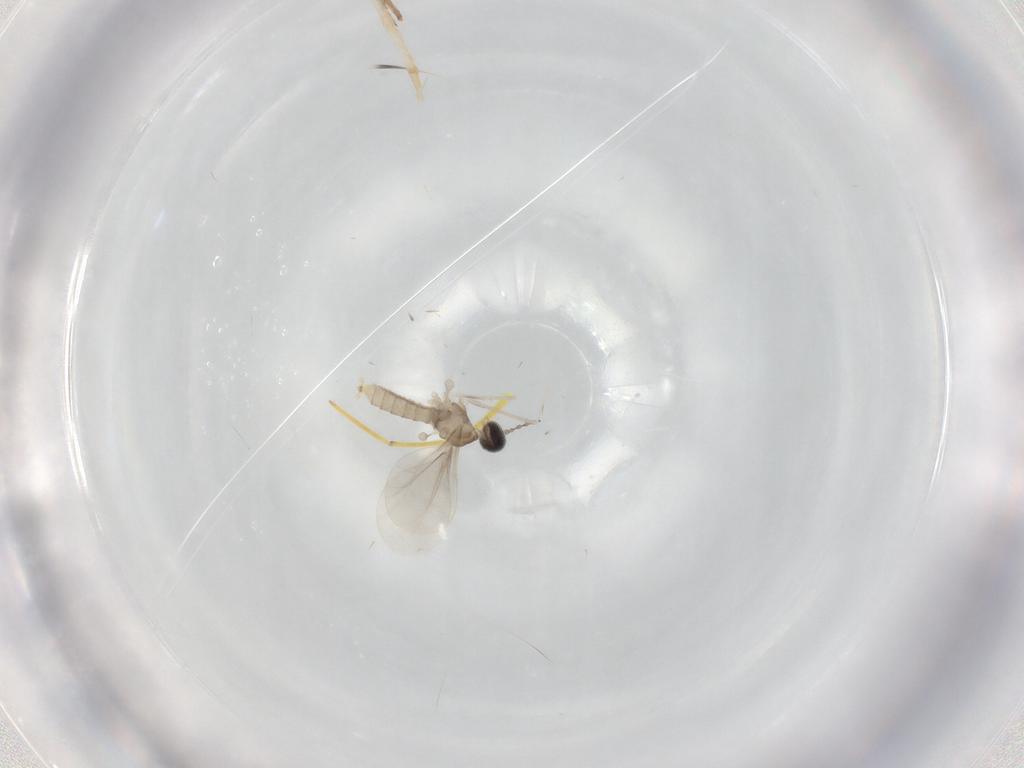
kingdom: Animalia
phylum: Arthropoda
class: Insecta
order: Diptera
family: Cecidomyiidae
